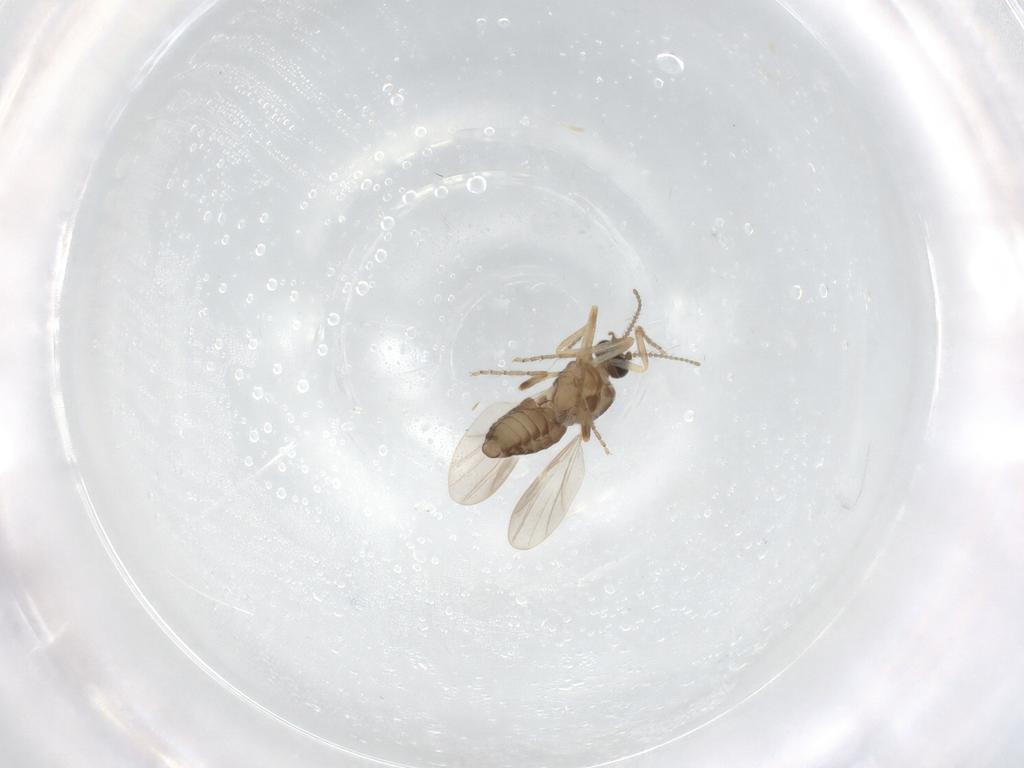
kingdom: Animalia
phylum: Arthropoda
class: Insecta
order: Diptera
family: Ceratopogonidae
